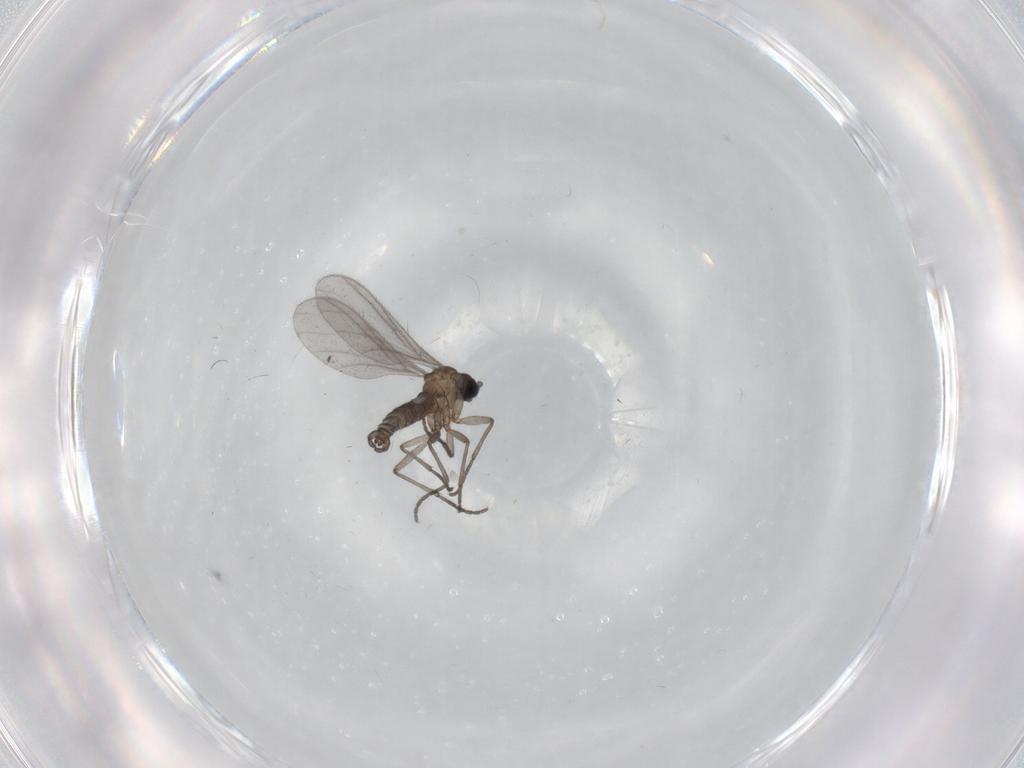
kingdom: Animalia
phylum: Arthropoda
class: Insecta
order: Diptera
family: Sciaridae
